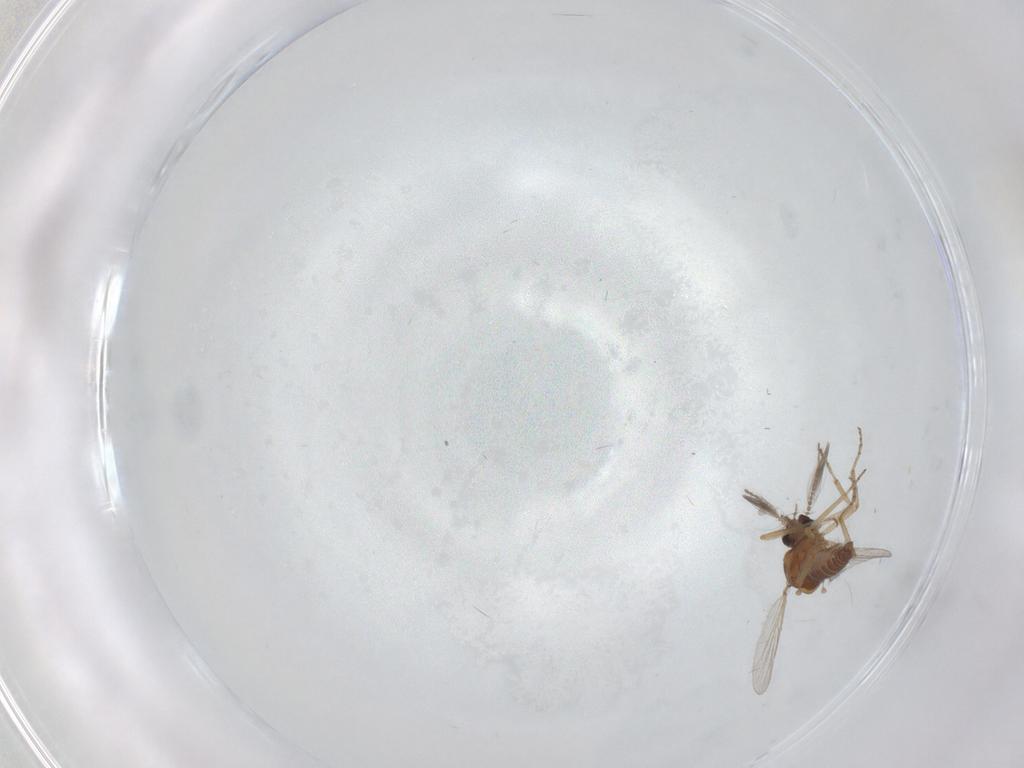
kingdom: Animalia
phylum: Arthropoda
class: Insecta
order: Diptera
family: Ceratopogonidae
